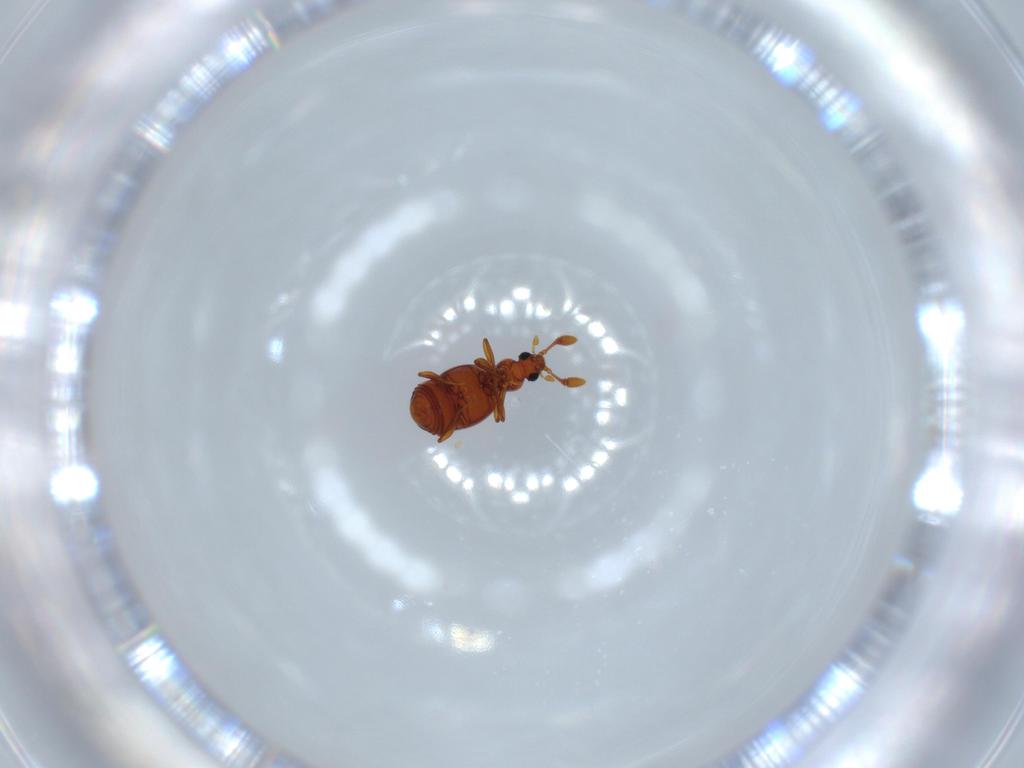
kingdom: Animalia
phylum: Arthropoda
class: Insecta
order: Coleoptera
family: Staphylinidae
